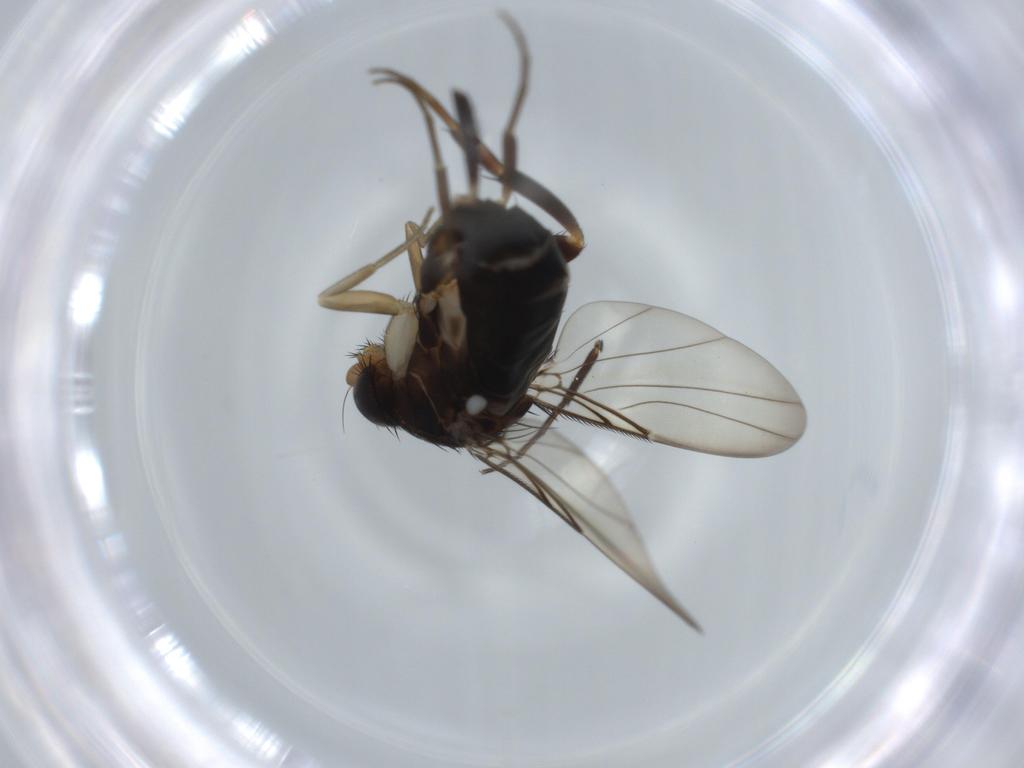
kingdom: Animalia
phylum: Arthropoda
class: Insecta
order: Diptera
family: Phoridae
